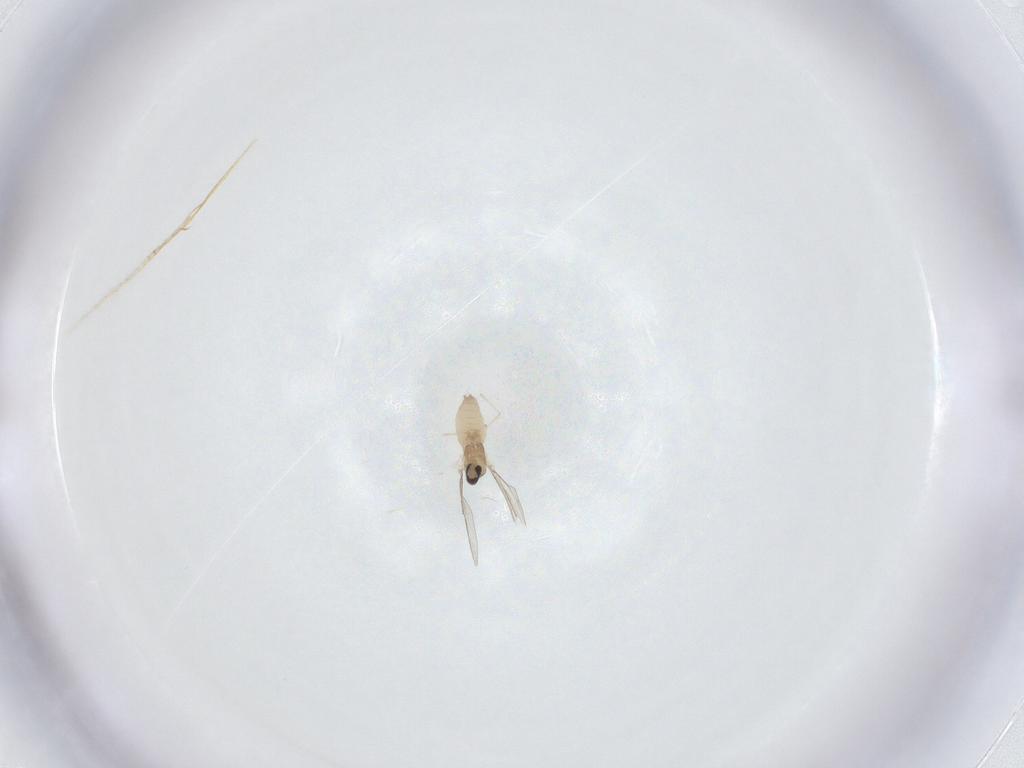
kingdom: Animalia
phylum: Arthropoda
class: Insecta
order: Diptera
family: Cecidomyiidae
